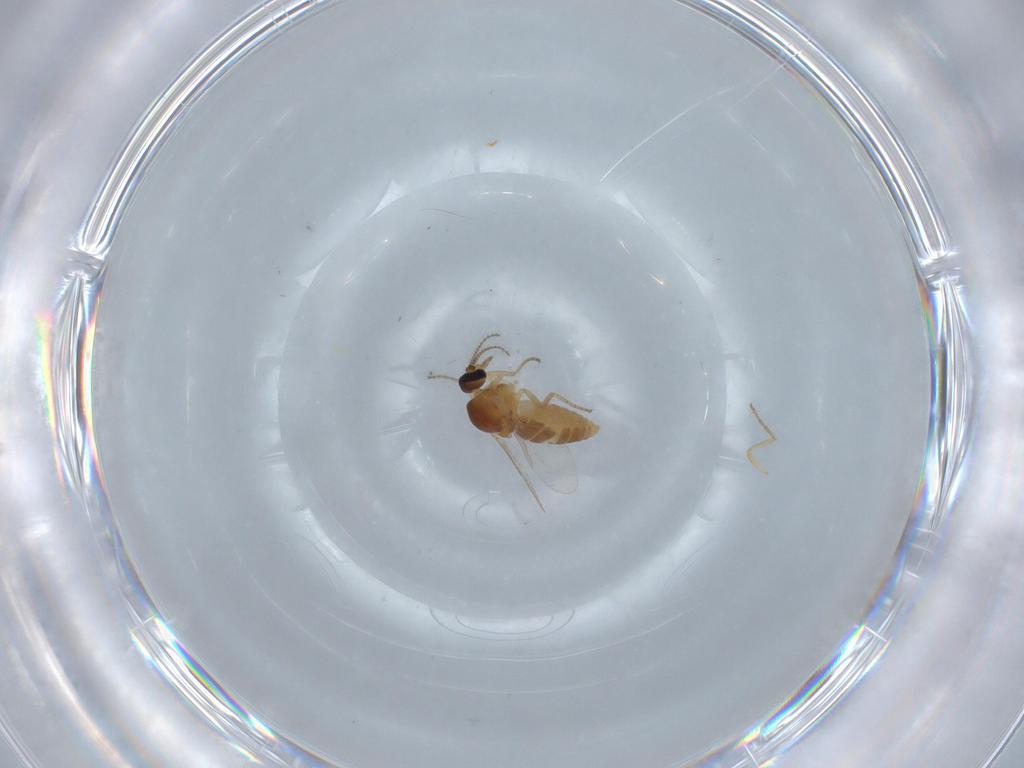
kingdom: Animalia
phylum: Arthropoda
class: Insecta
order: Diptera
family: Ceratopogonidae
